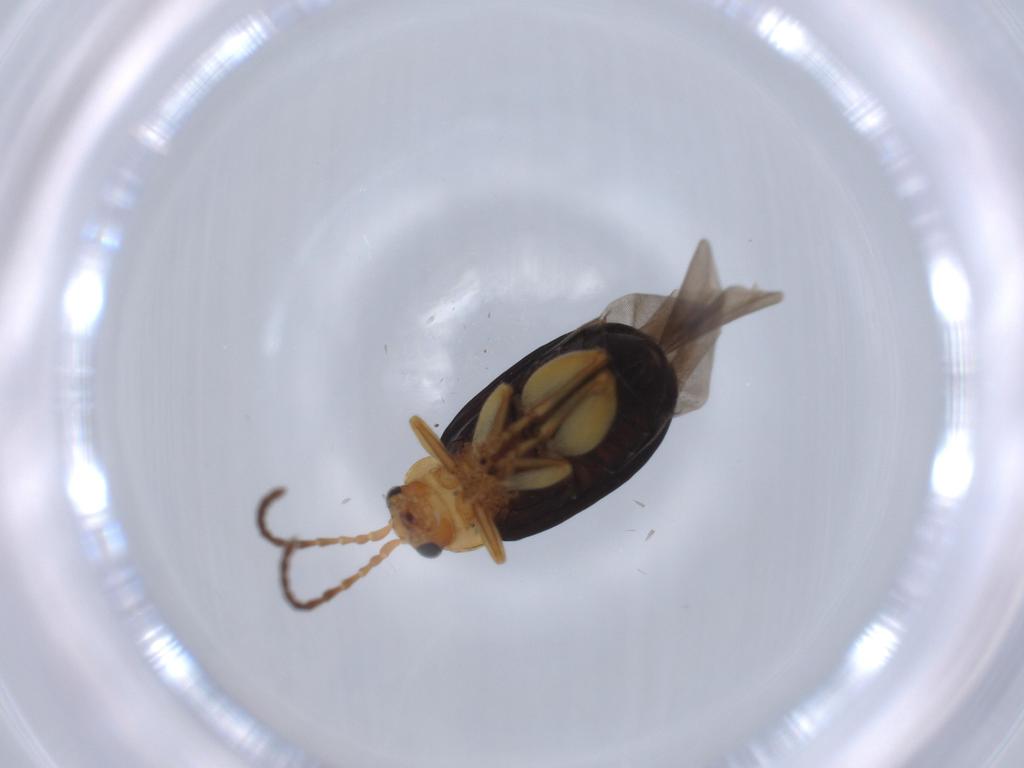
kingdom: Animalia
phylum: Arthropoda
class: Insecta
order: Coleoptera
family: Chrysomelidae
